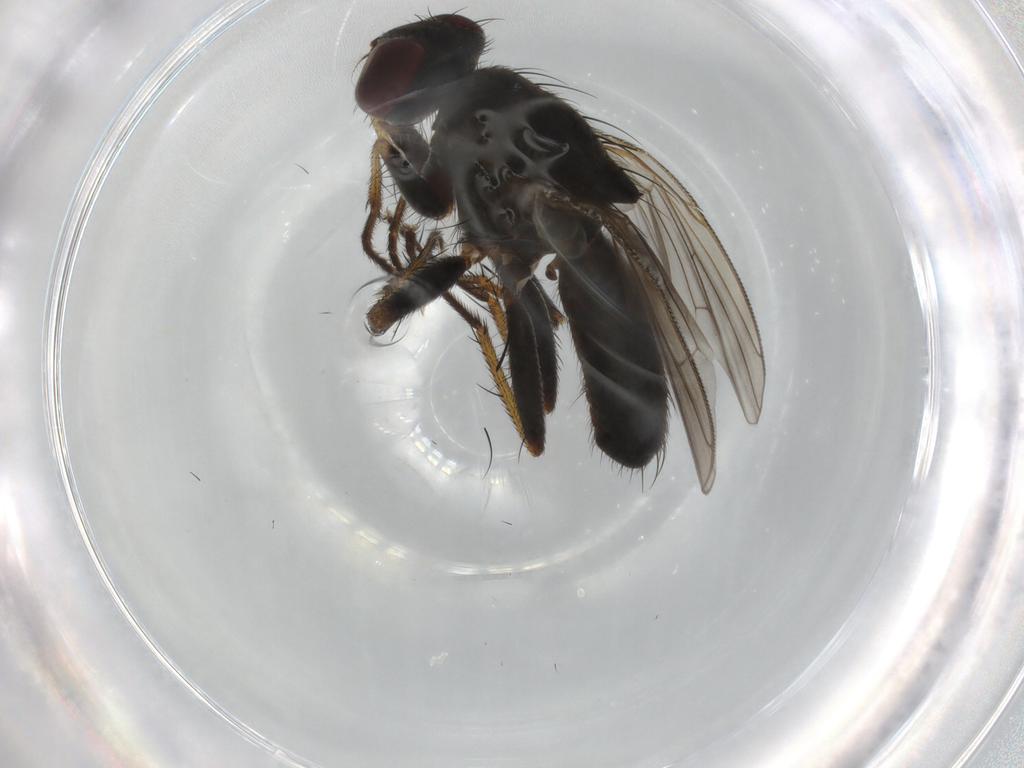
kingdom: Animalia
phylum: Arthropoda
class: Insecta
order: Diptera
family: Muscidae
